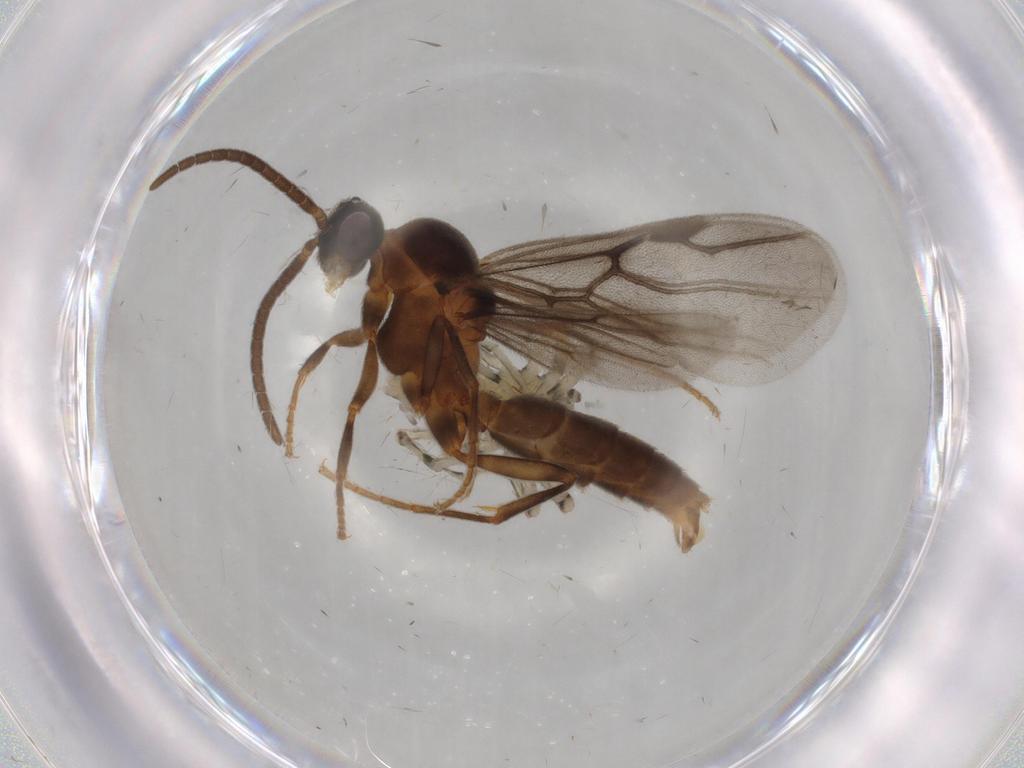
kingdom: Animalia
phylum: Arthropoda
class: Insecta
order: Hymenoptera
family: Formicidae
